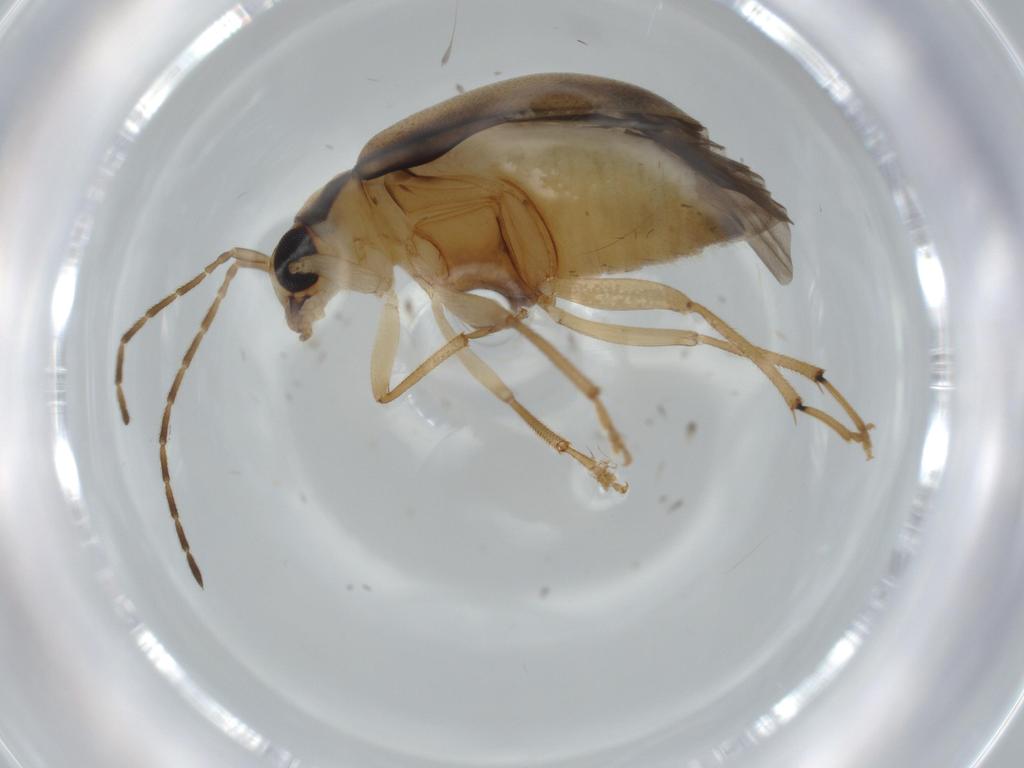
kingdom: Animalia
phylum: Arthropoda
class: Insecta
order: Coleoptera
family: Chrysomelidae
